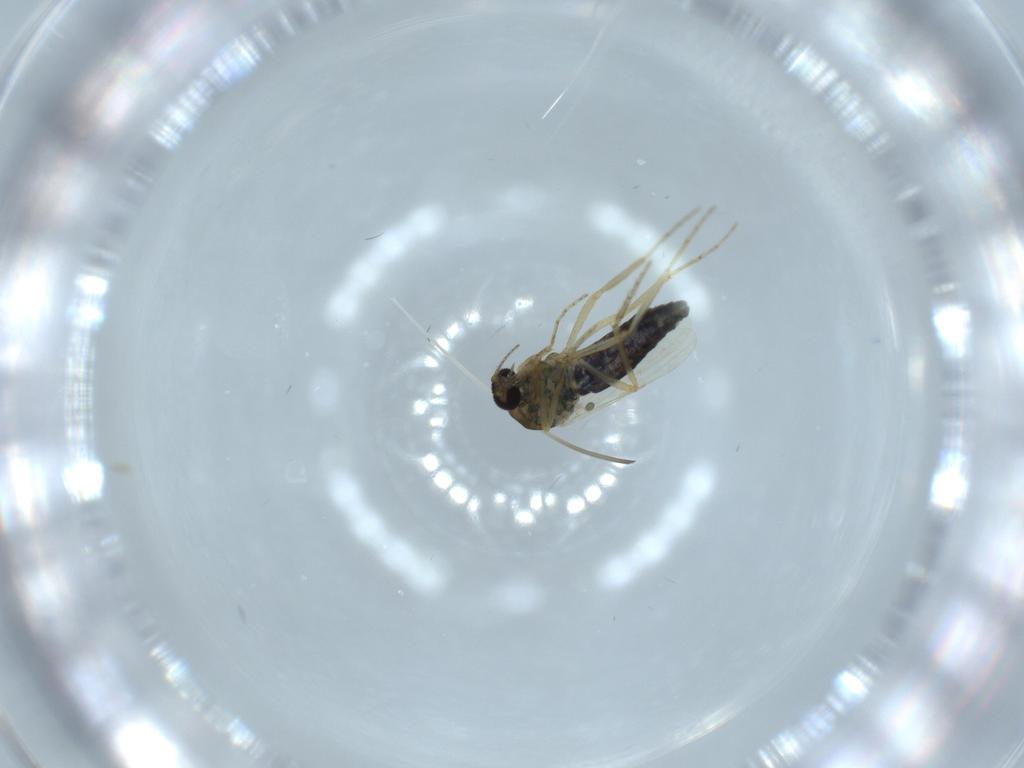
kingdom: Animalia
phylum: Arthropoda
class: Insecta
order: Diptera
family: Ceratopogonidae
